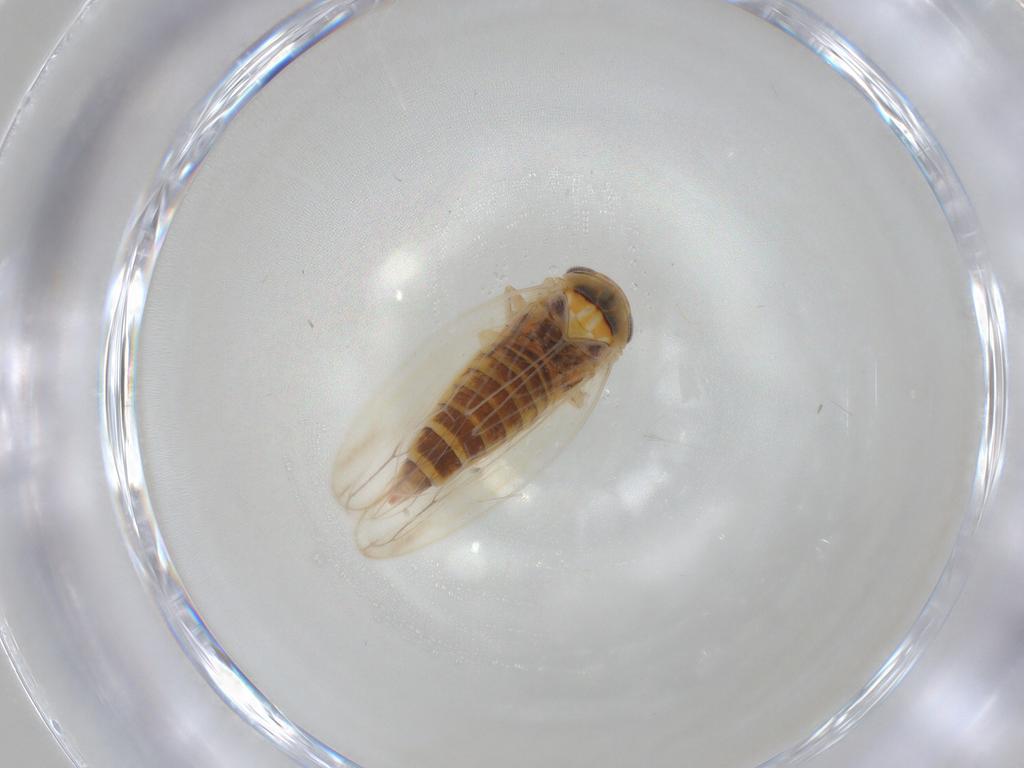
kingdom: Animalia
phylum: Arthropoda
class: Insecta
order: Hemiptera
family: Cicadellidae
